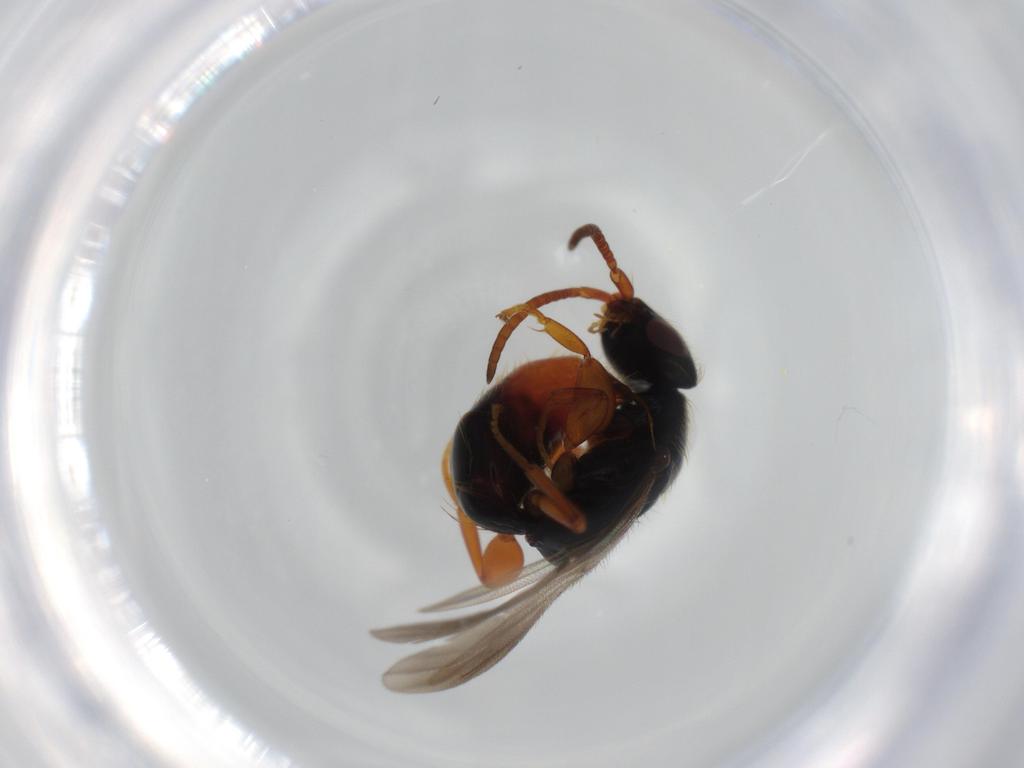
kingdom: Animalia
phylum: Arthropoda
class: Insecta
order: Hymenoptera
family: Bethylidae
